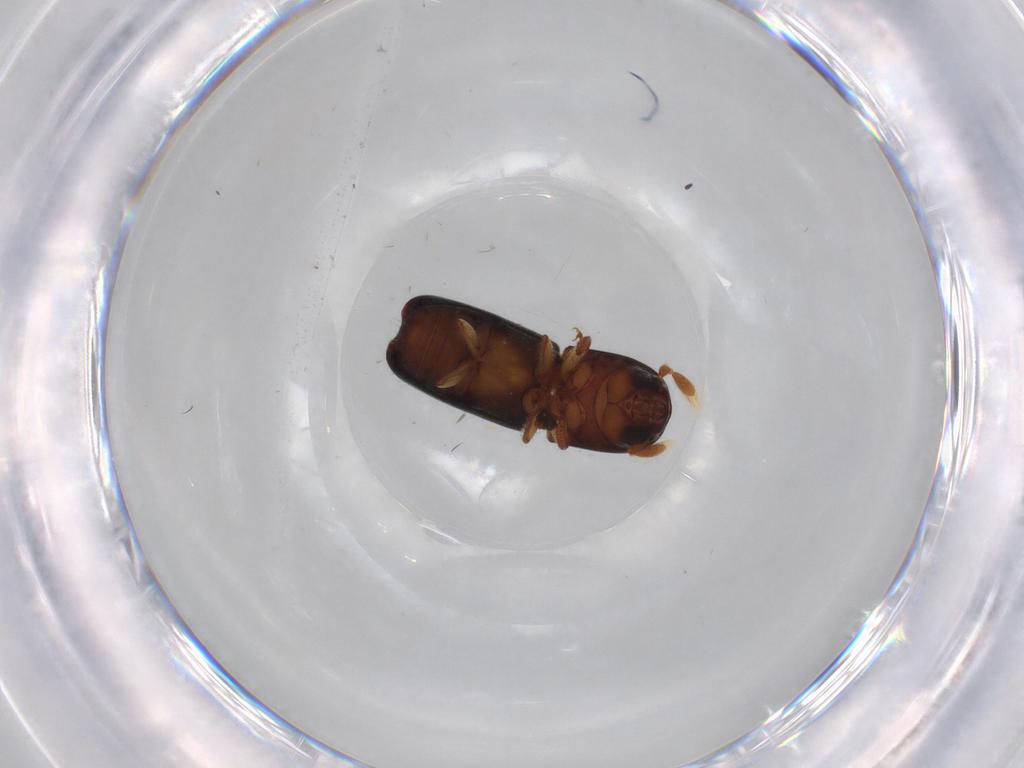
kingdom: Animalia
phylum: Arthropoda
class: Insecta
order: Coleoptera
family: Curculionidae
